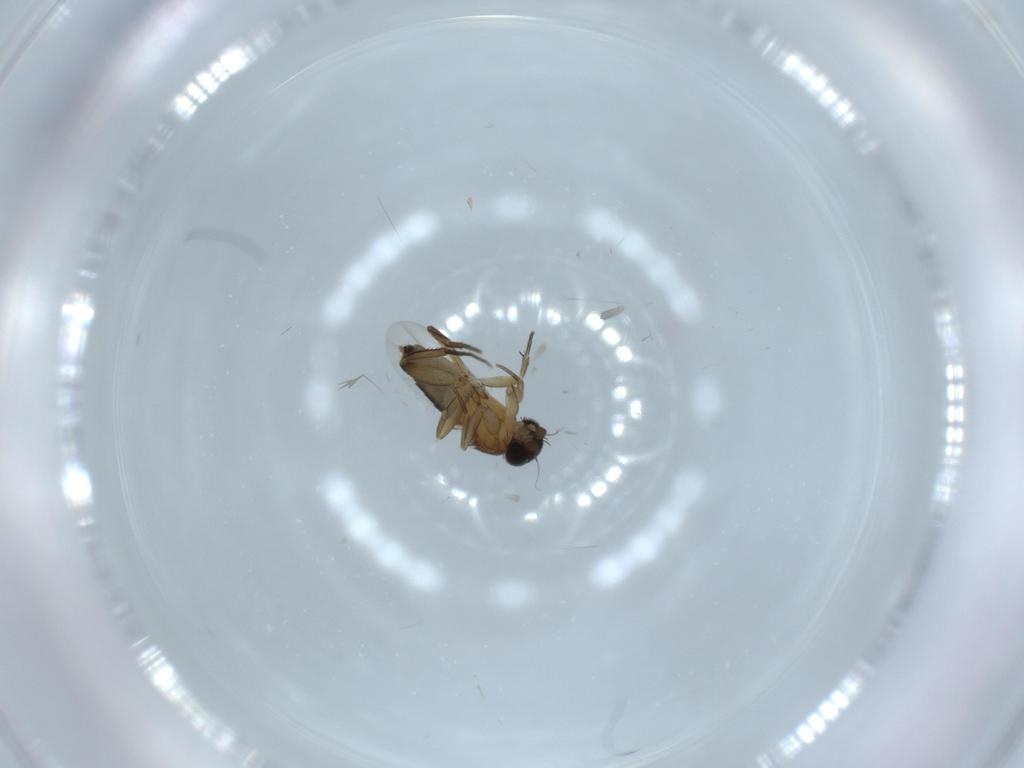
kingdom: Animalia
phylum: Arthropoda
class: Insecta
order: Diptera
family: Phoridae
